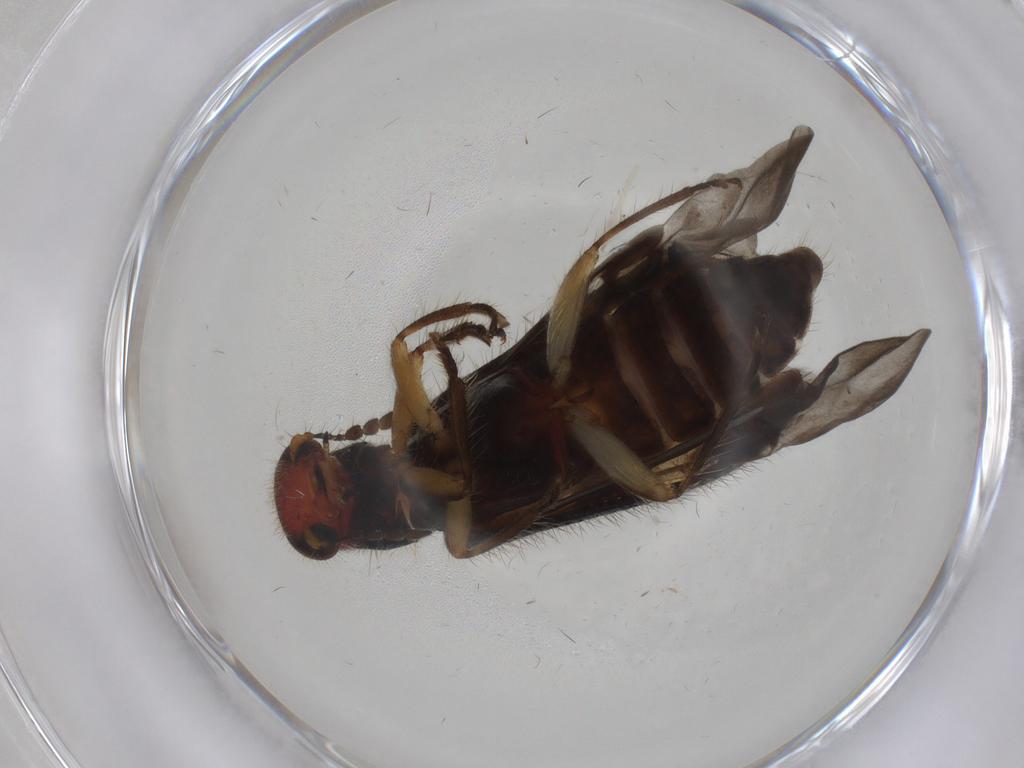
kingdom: Animalia
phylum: Arthropoda
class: Insecta
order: Coleoptera
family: Cleridae
